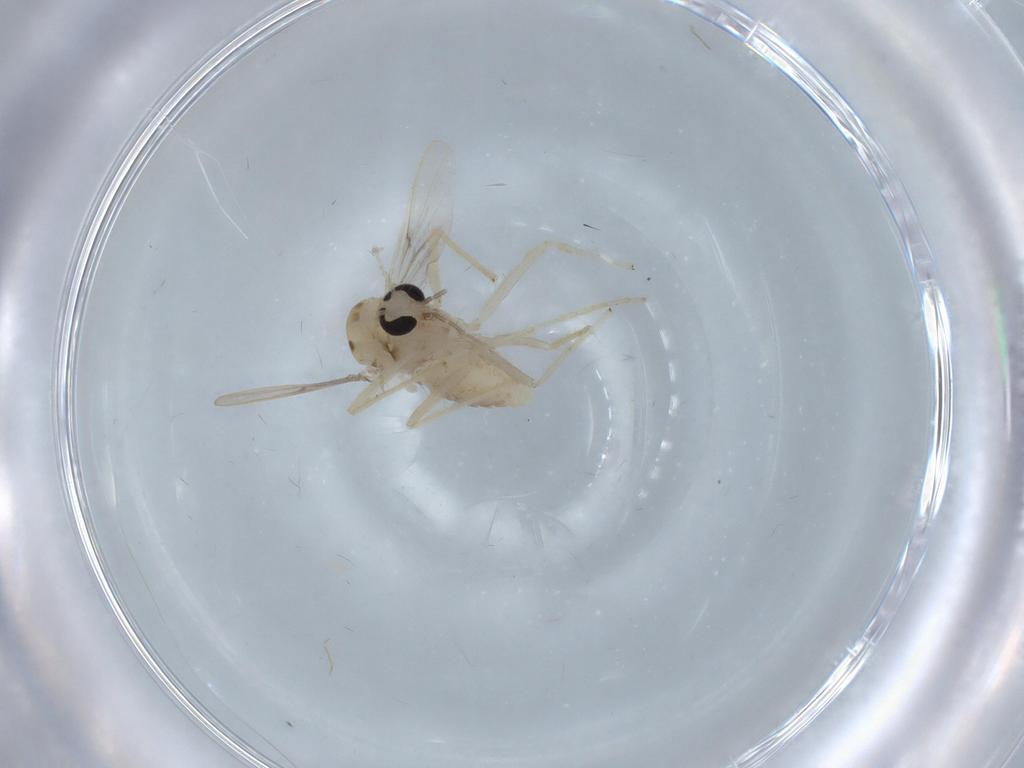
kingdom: Animalia
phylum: Arthropoda
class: Insecta
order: Diptera
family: Chironomidae
